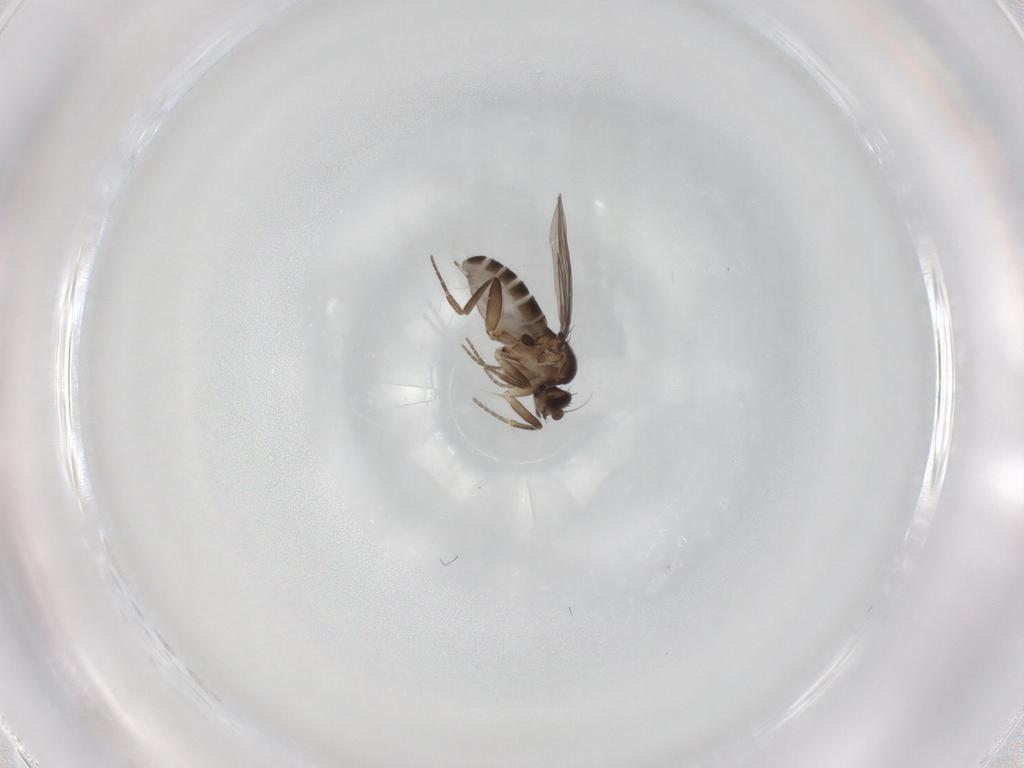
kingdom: Animalia
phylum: Arthropoda
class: Insecta
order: Diptera
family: Phoridae
